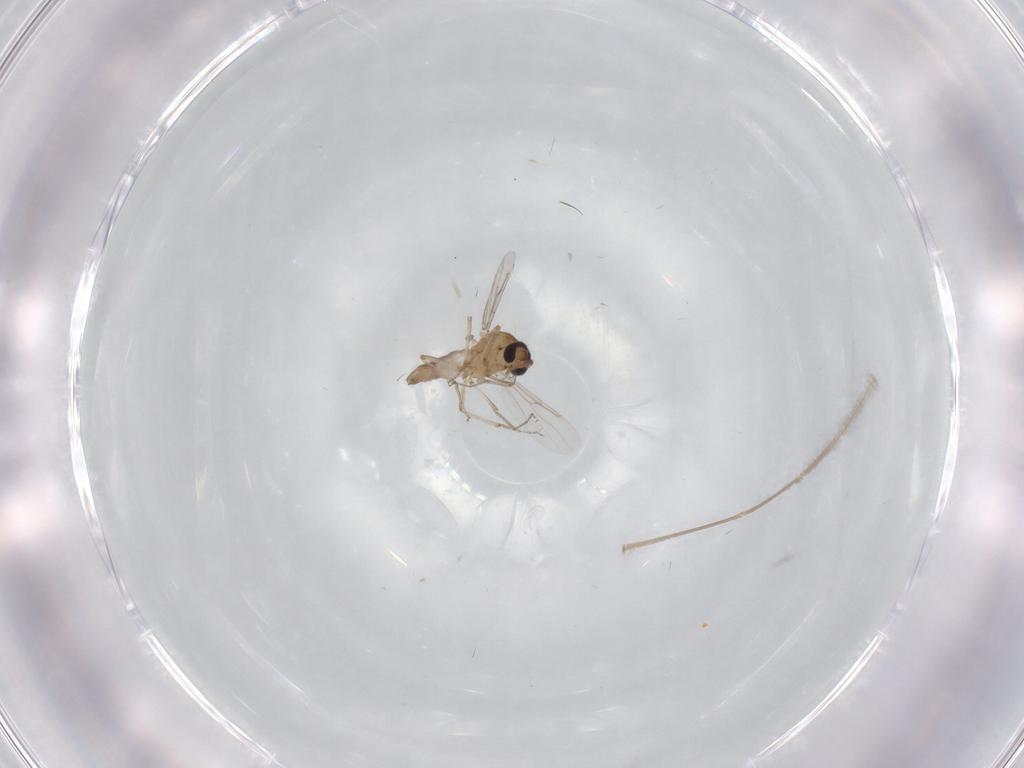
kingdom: Animalia
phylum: Arthropoda
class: Insecta
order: Diptera
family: Chironomidae
